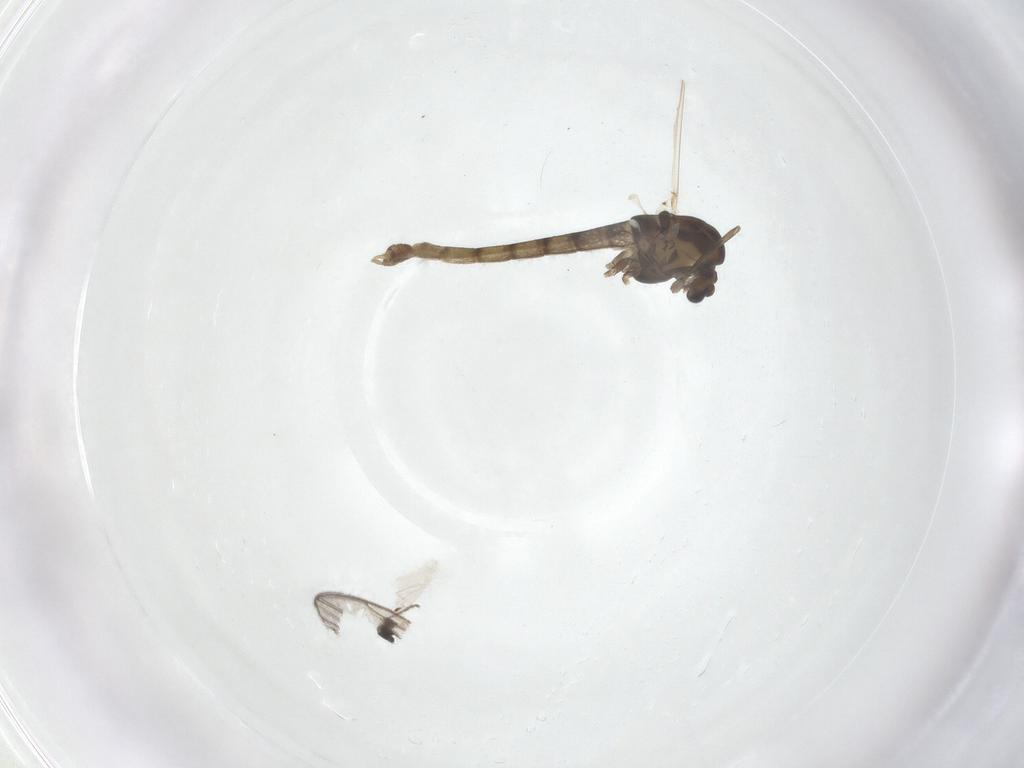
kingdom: Animalia
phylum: Arthropoda
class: Insecta
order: Diptera
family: Chironomidae
